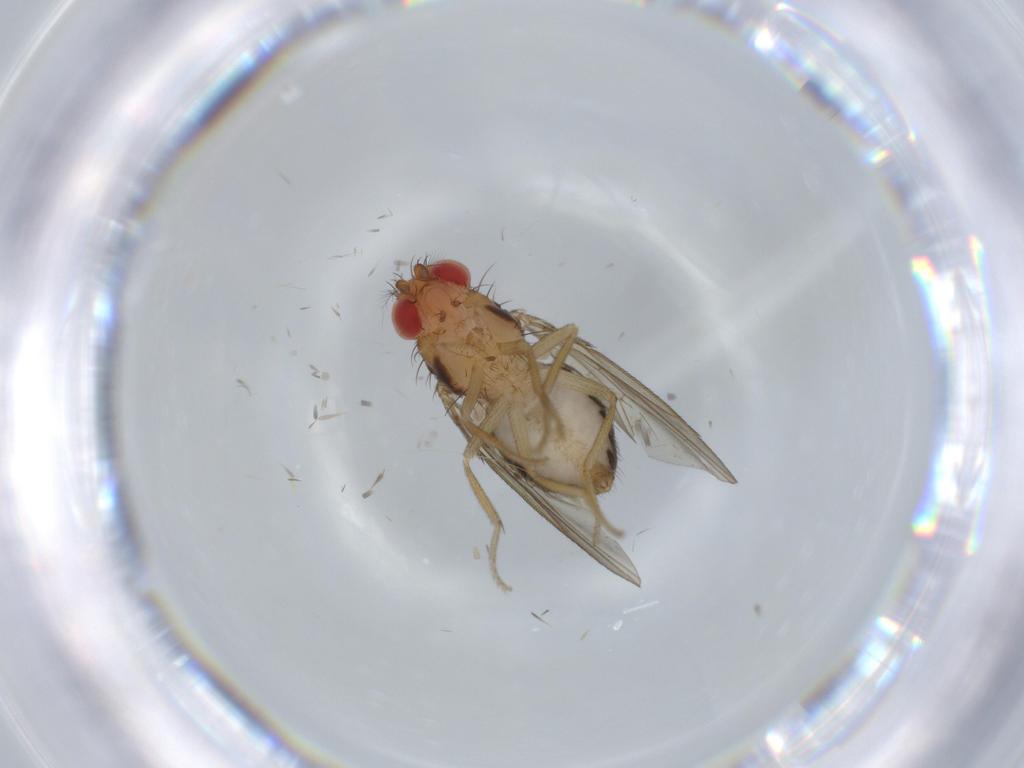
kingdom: Animalia
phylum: Arthropoda
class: Insecta
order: Diptera
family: Drosophilidae
